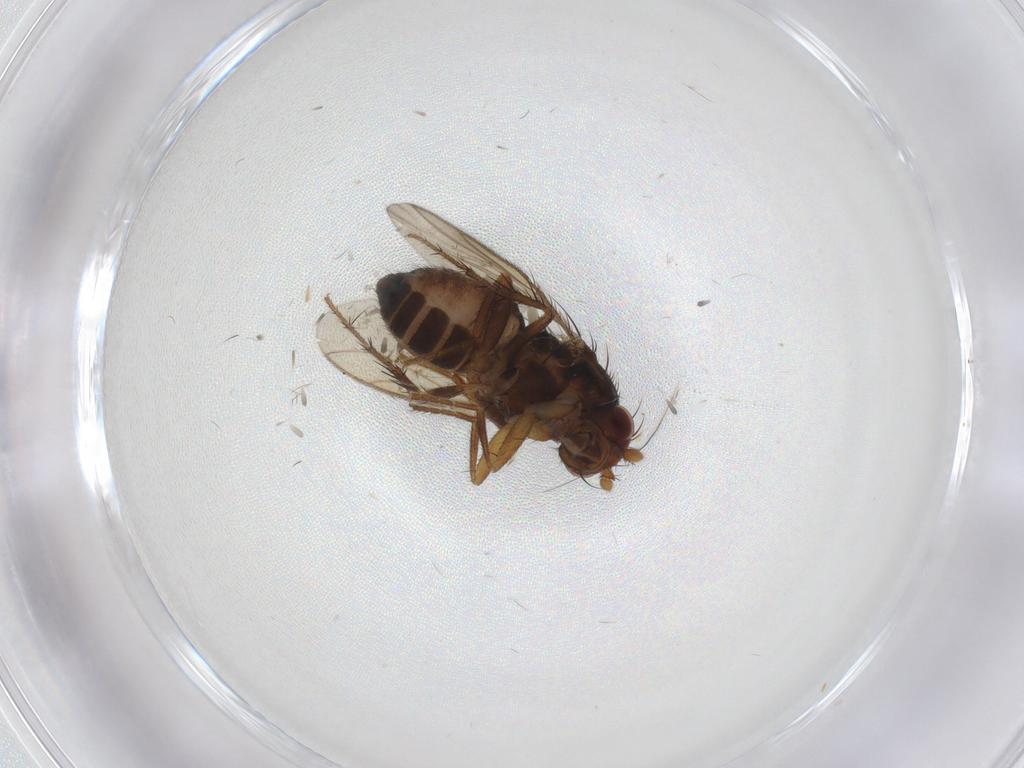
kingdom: Animalia
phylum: Arthropoda
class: Insecta
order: Diptera
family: Sphaeroceridae
